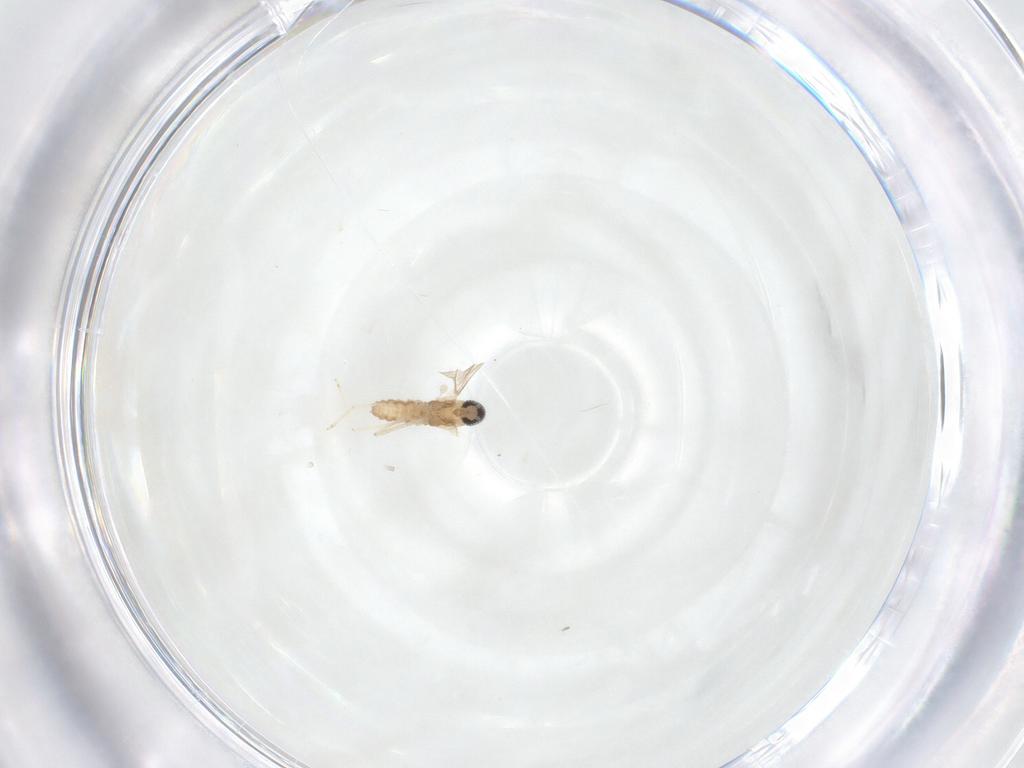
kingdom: Animalia
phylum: Arthropoda
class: Insecta
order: Diptera
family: Cecidomyiidae
